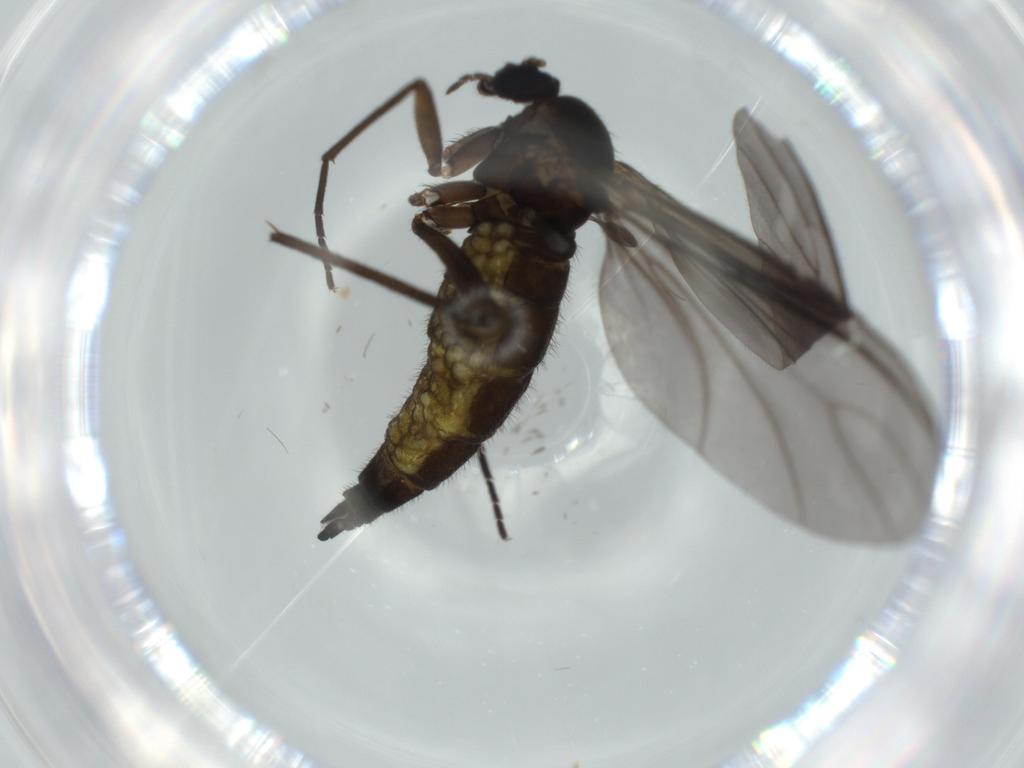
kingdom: Animalia
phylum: Arthropoda
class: Insecta
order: Diptera
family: Sciaridae
